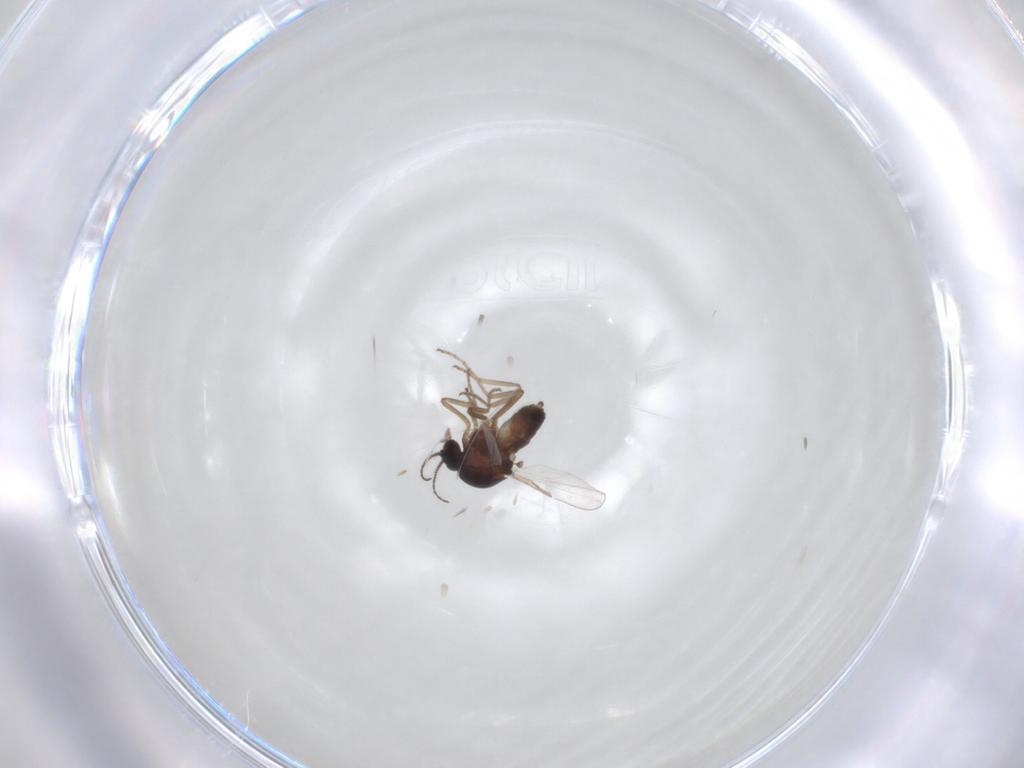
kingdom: Animalia
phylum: Arthropoda
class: Insecta
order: Diptera
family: Ceratopogonidae
